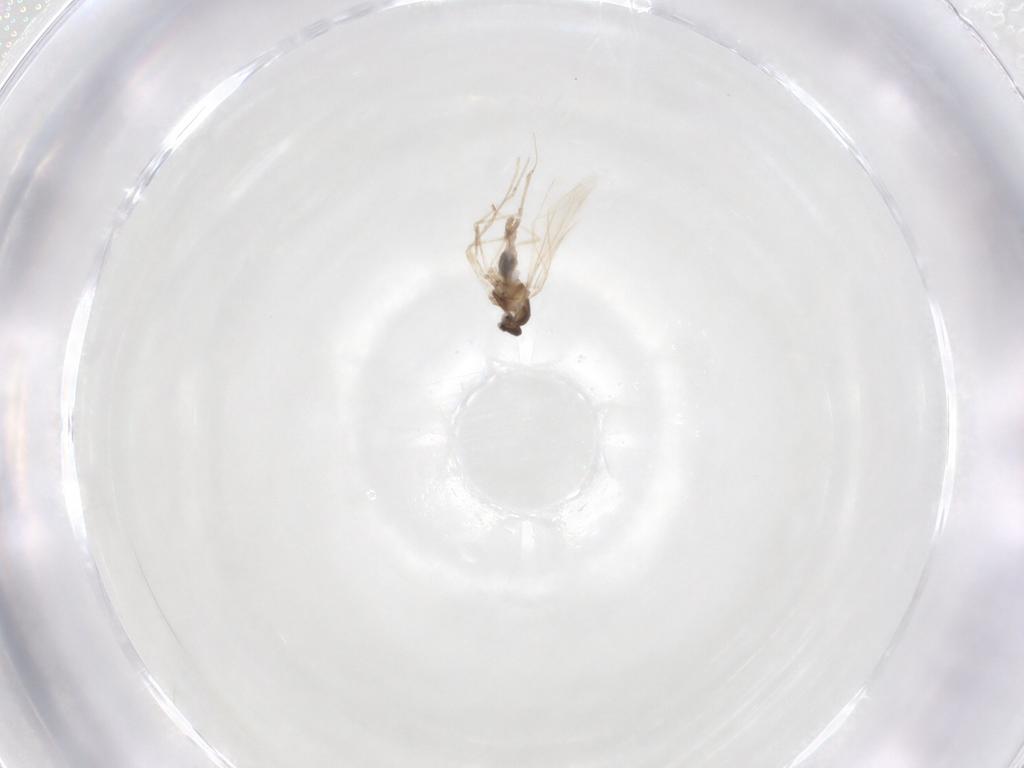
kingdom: Animalia
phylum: Arthropoda
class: Insecta
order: Diptera
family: Cecidomyiidae
